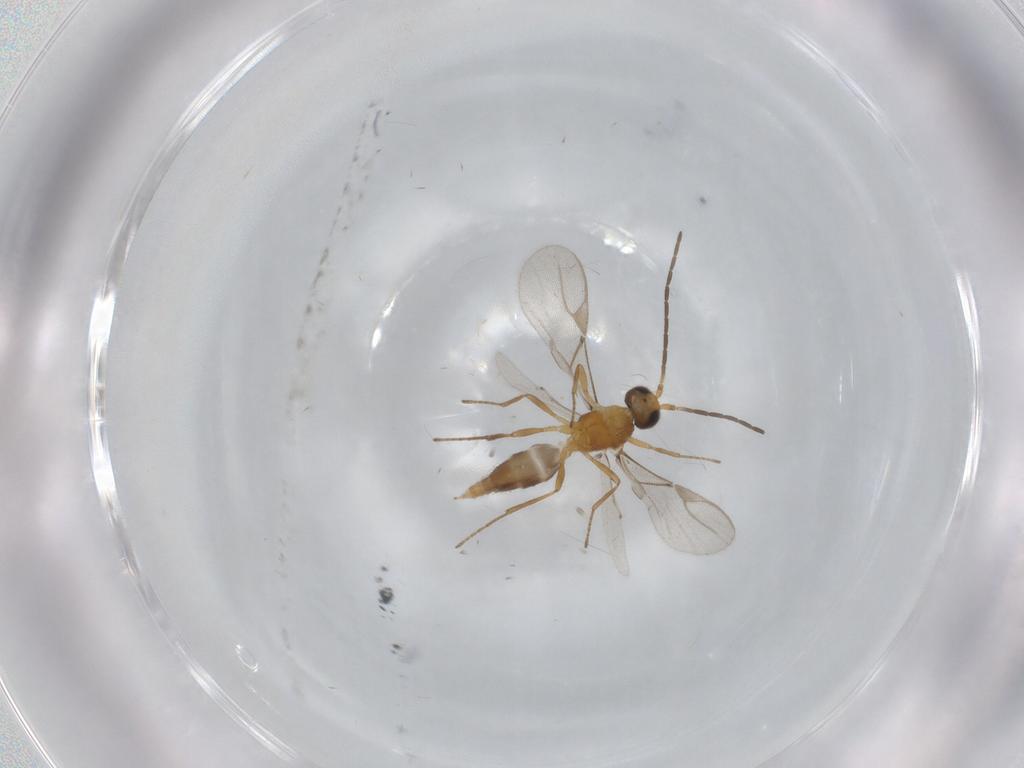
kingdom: Animalia
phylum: Arthropoda
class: Insecta
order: Hymenoptera
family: Braconidae
